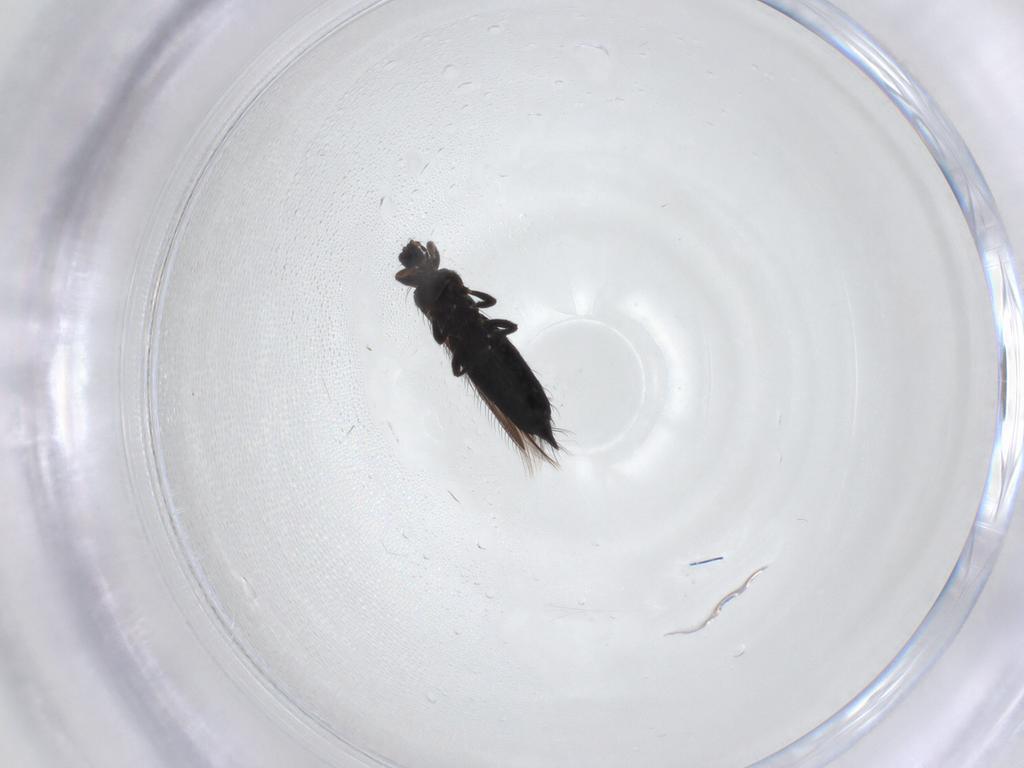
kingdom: Animalia
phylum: Arthropoda
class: Insecta
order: Thysanoptera
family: Thripidae
